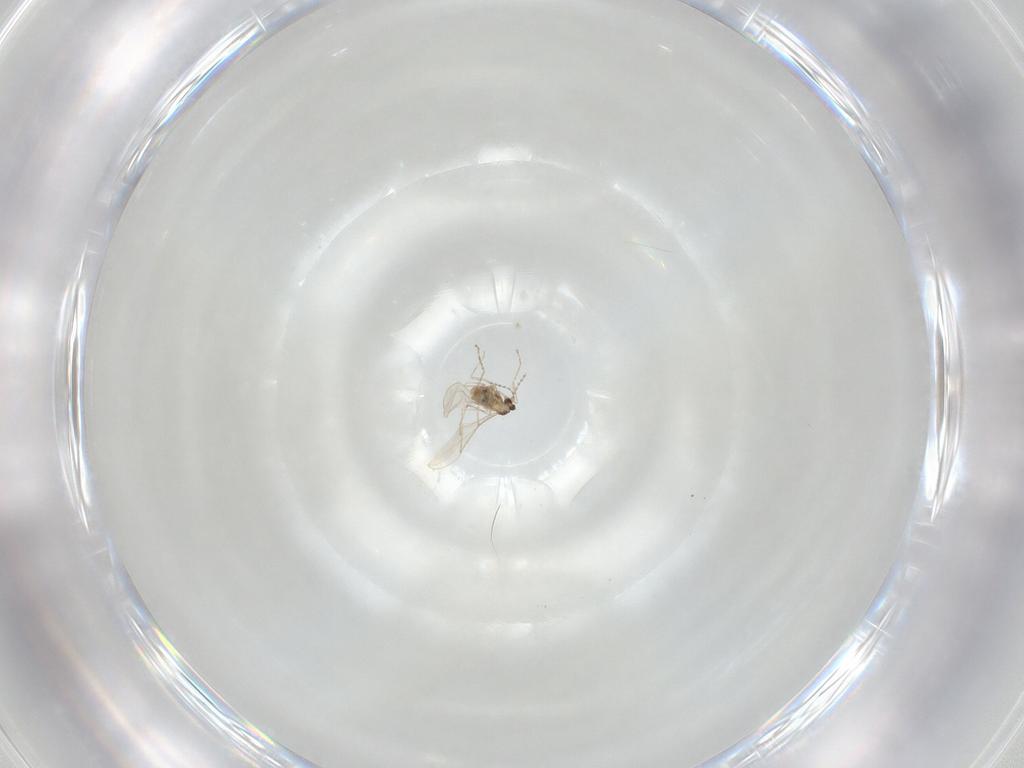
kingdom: Animalia
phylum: Arthropoda
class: Insecta
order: Diptera
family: Cecidomyiidae
